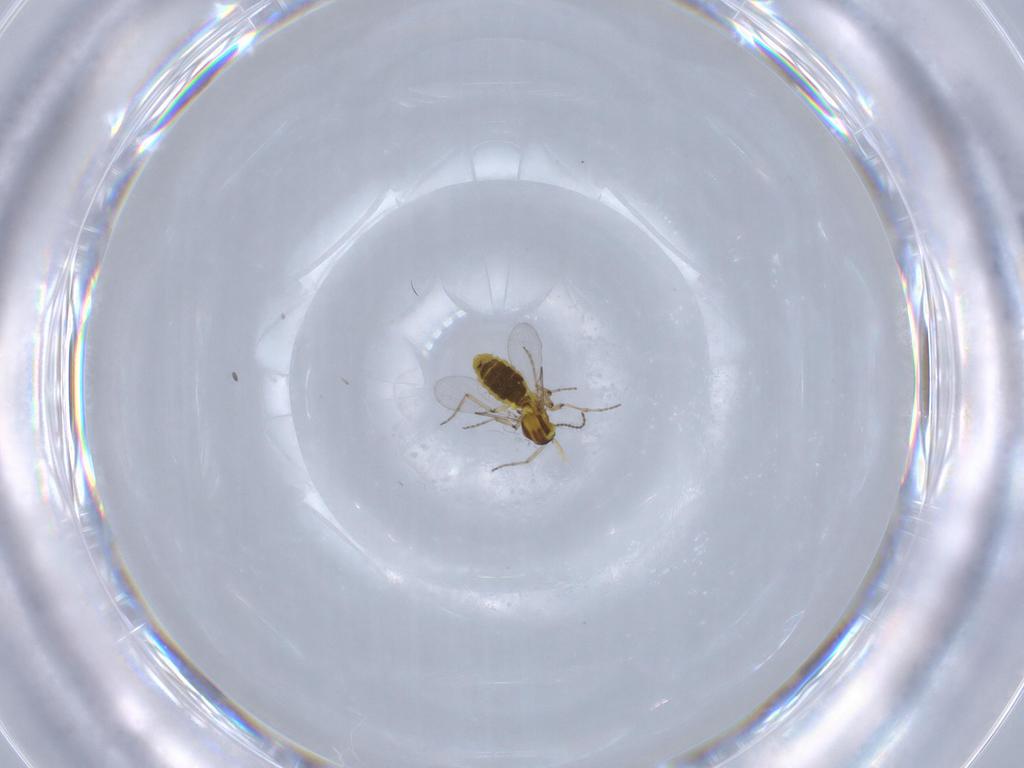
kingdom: Animalia
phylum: Arthropoda
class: Insecta
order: Diptera
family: Ceratopogonidae
